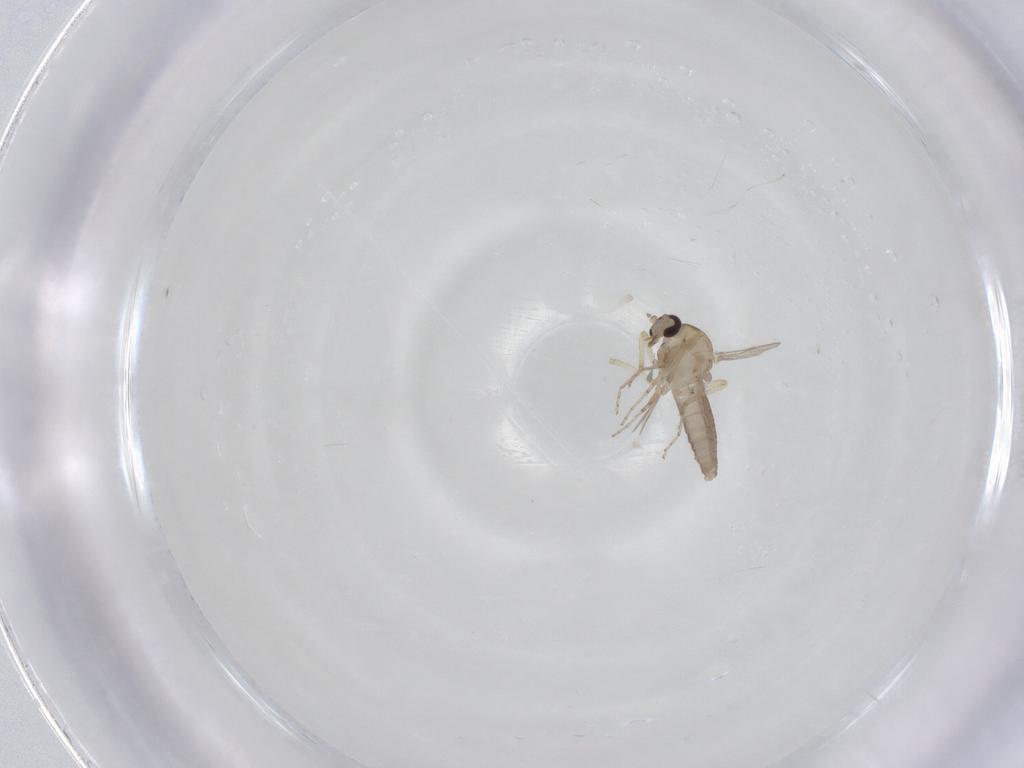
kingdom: Animalia
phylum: Arthropoda
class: Insecta
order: Diptera
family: Ceratopogonidae
